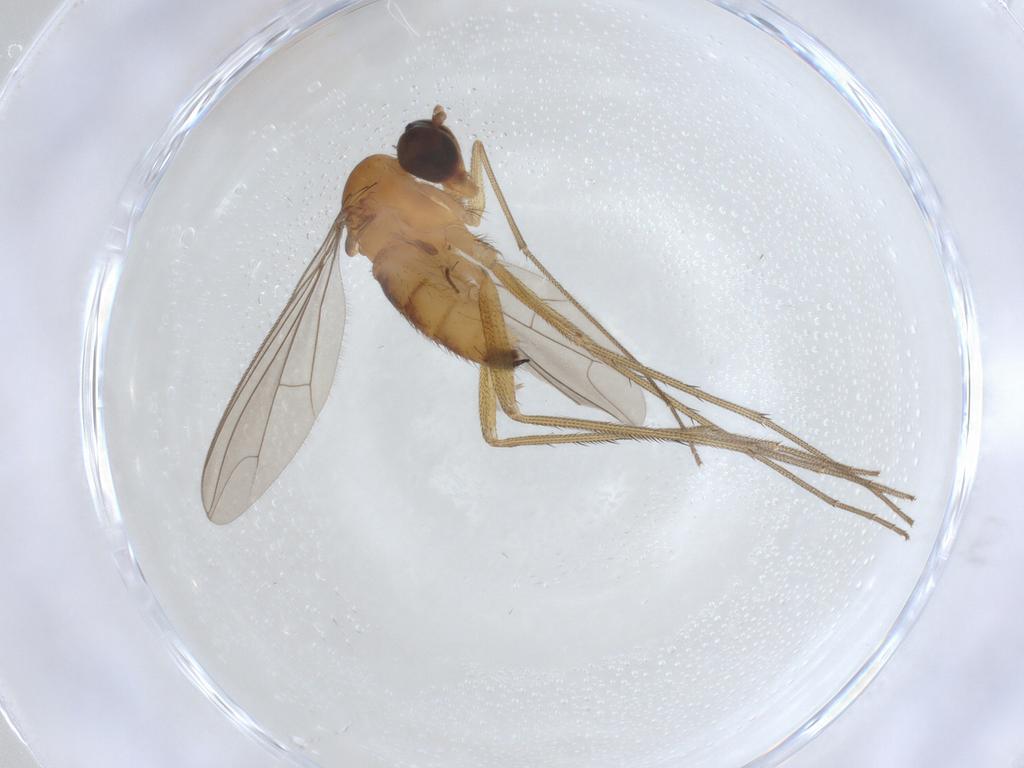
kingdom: Animalia
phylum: Arthropoda
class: Insecta
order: Diptera
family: Dolichopodidae
